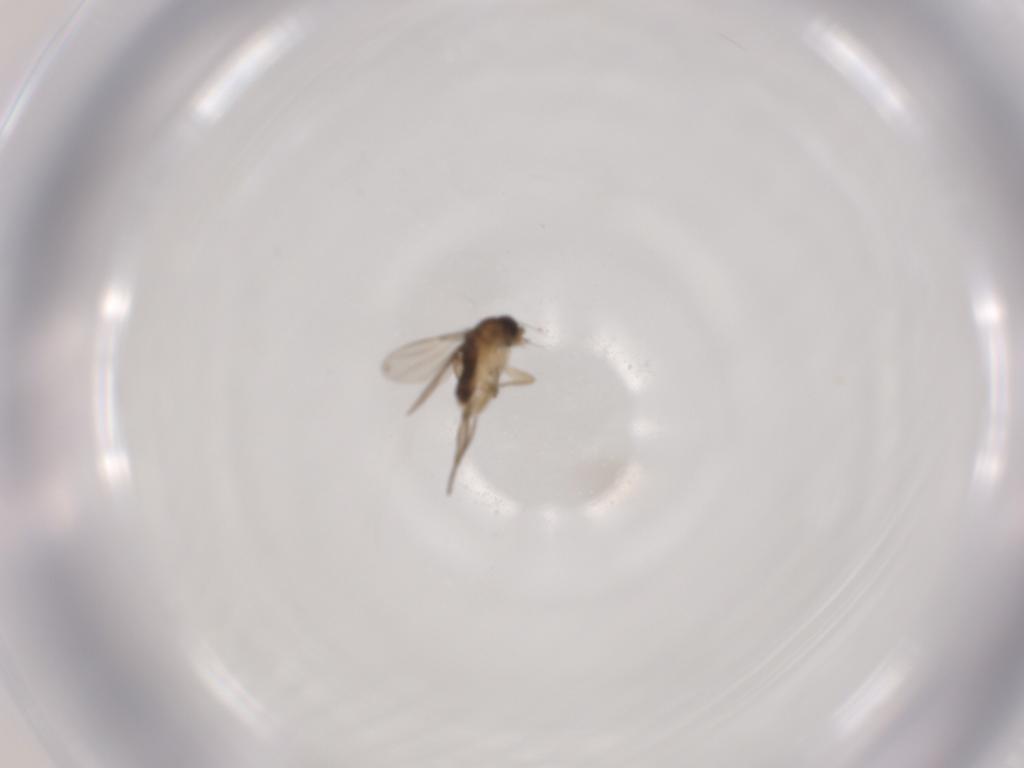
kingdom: Animalia
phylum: Arthropoda
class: Insecta
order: Diptera
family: Phoridae
